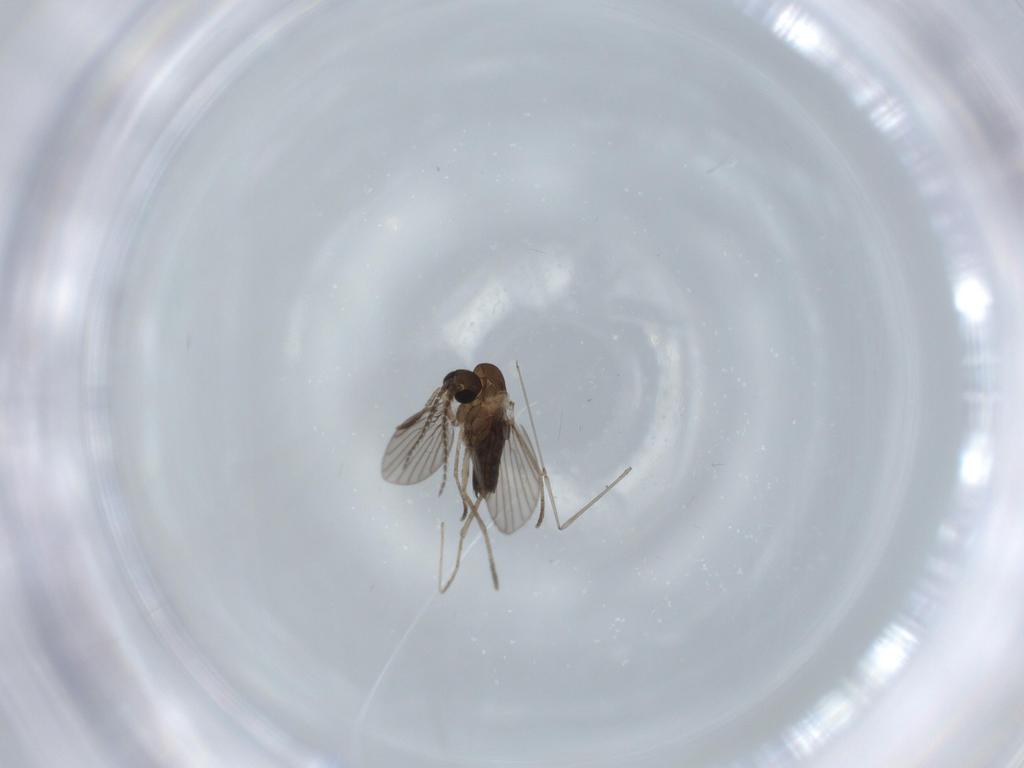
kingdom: Animalia
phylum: Arthropoda
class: Insecta
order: Diptera
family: Cecidomyiidae
